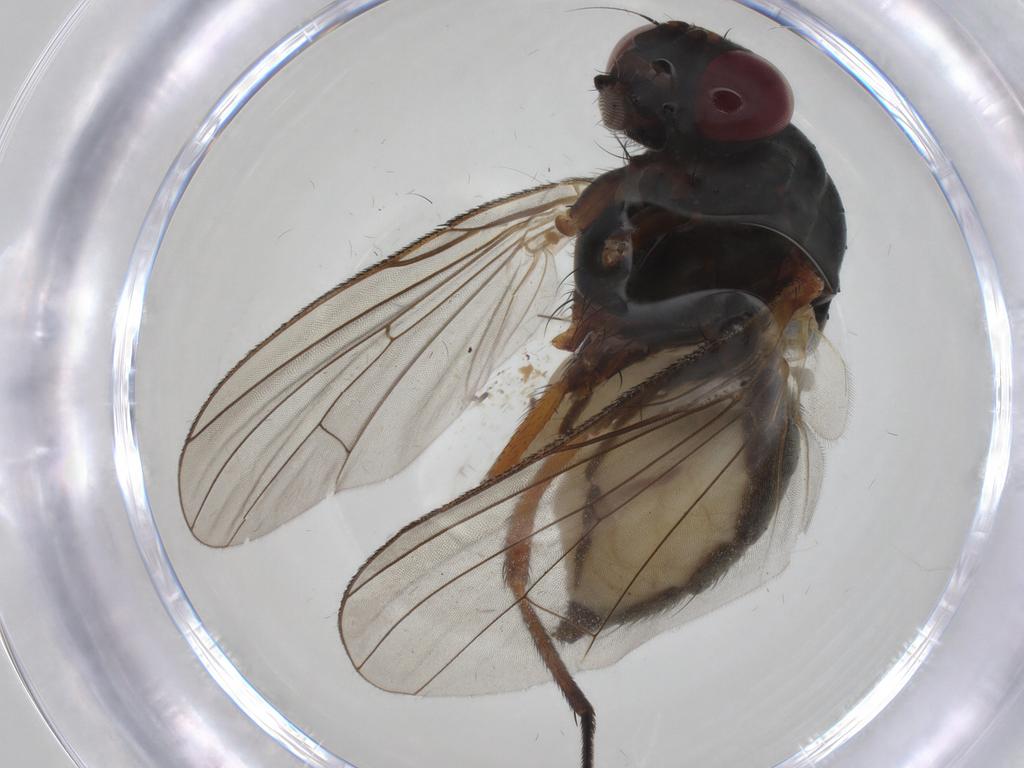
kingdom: Animalia
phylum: Arthropoda
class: Insecta
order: Diptera
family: Anthomyiidae
